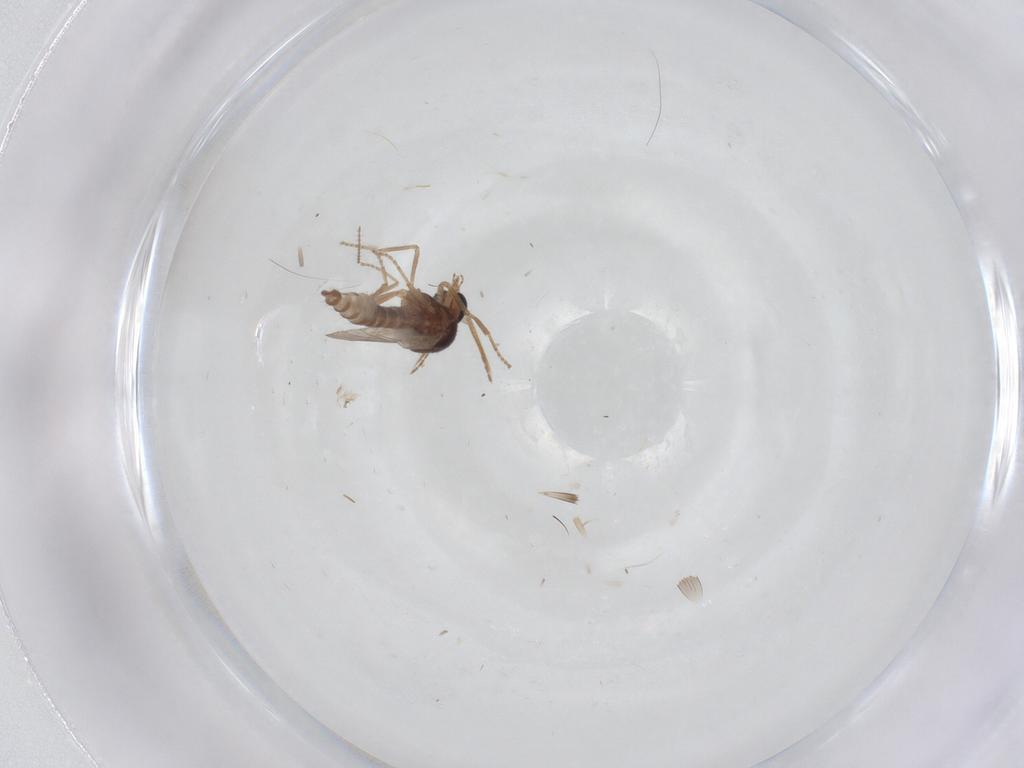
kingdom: Animalia
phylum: Arthropoda
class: Insecta
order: Diptera
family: Ceratopogonidae
